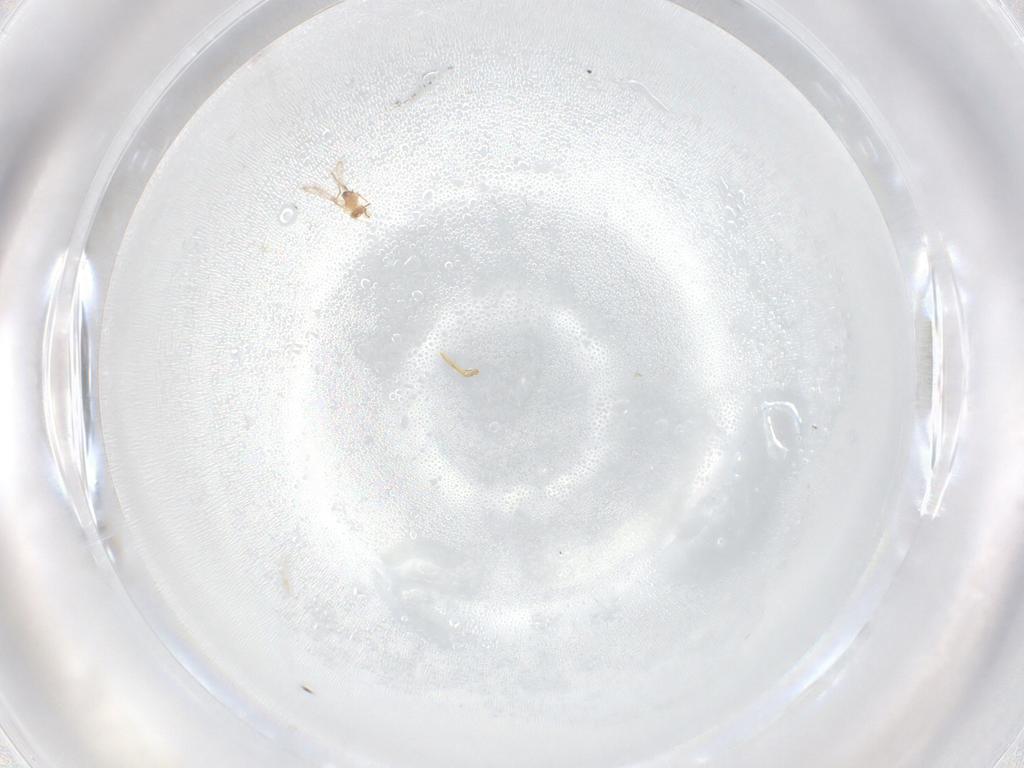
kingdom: Animalia
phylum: Arthropoda
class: Insecta
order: Hymenoptera
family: Mymaridae
